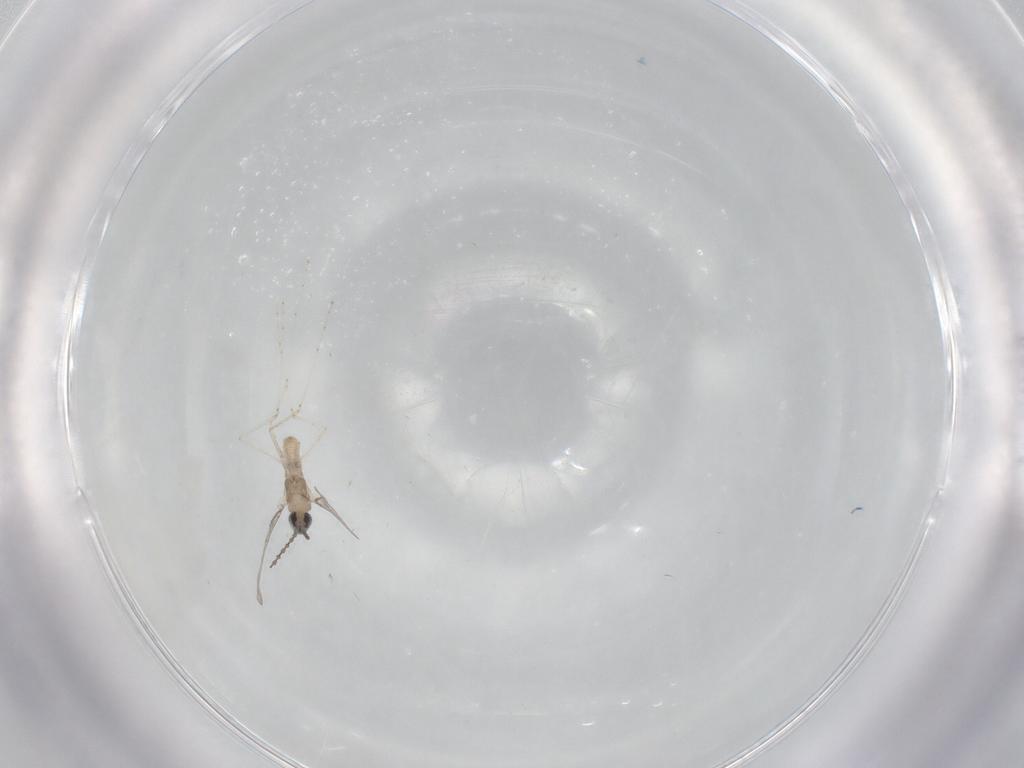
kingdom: Animalia
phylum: Arthropoda
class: Insecta
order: Diptera
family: Cecidomyiidae
